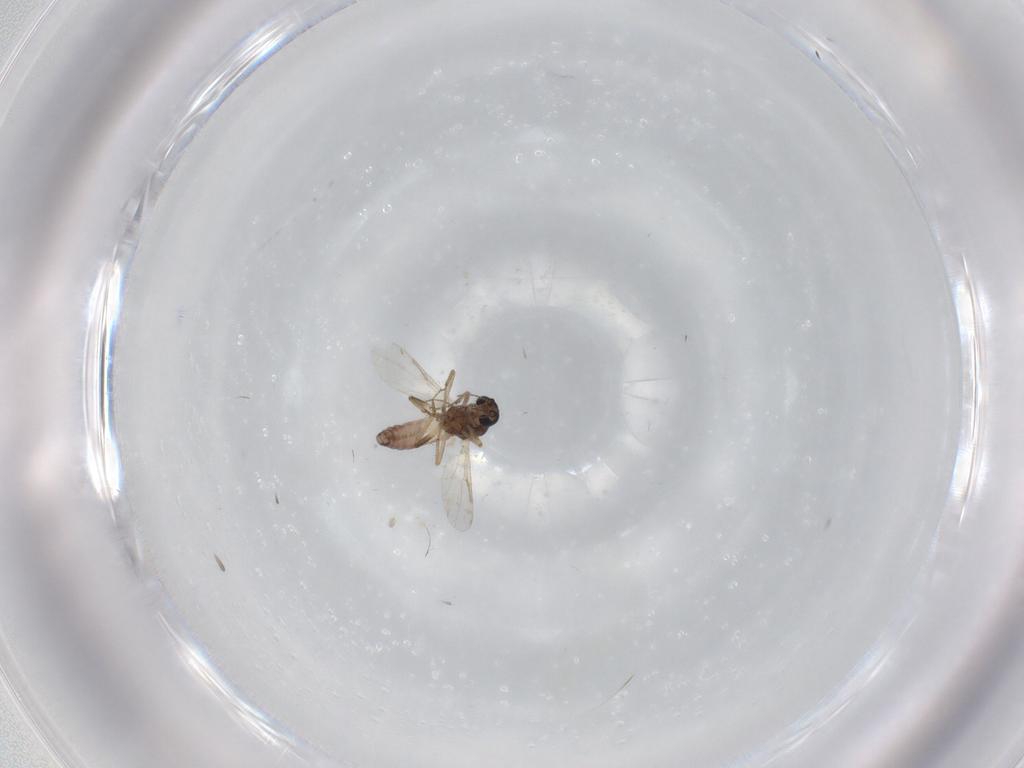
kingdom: Animalia
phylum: Arthropoda
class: Insecta
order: Diptera
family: Ceratopogonidae
